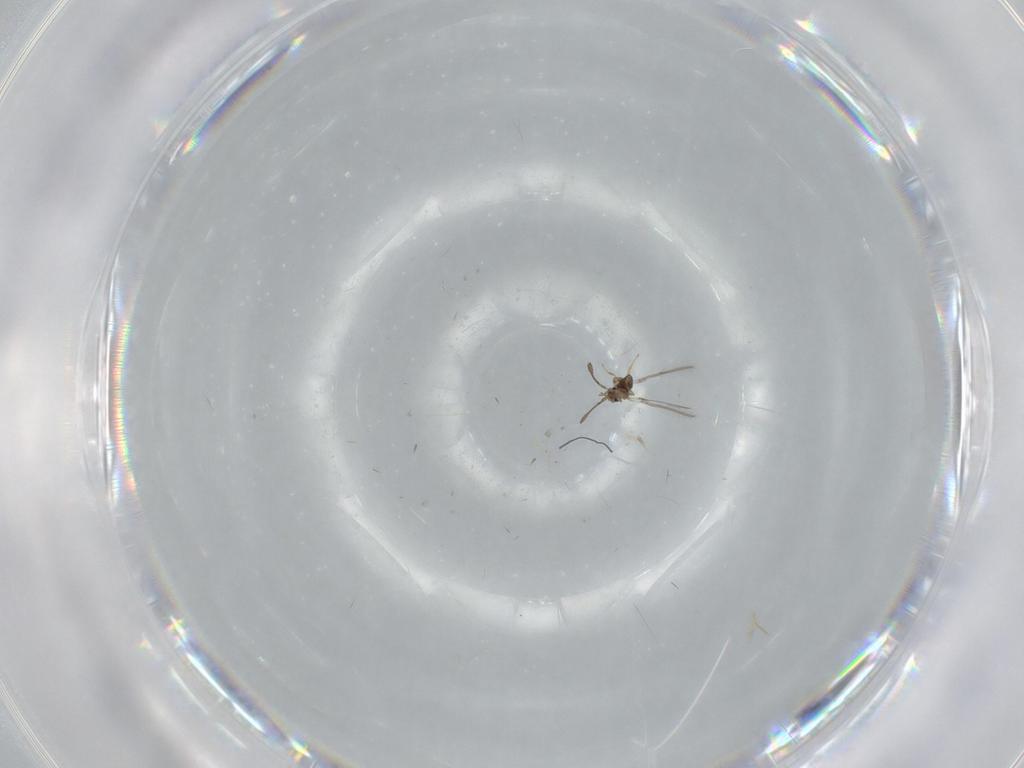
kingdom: Animalia
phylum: Arthropoda
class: Insecta
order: Hymenoptera
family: Mymaridae
